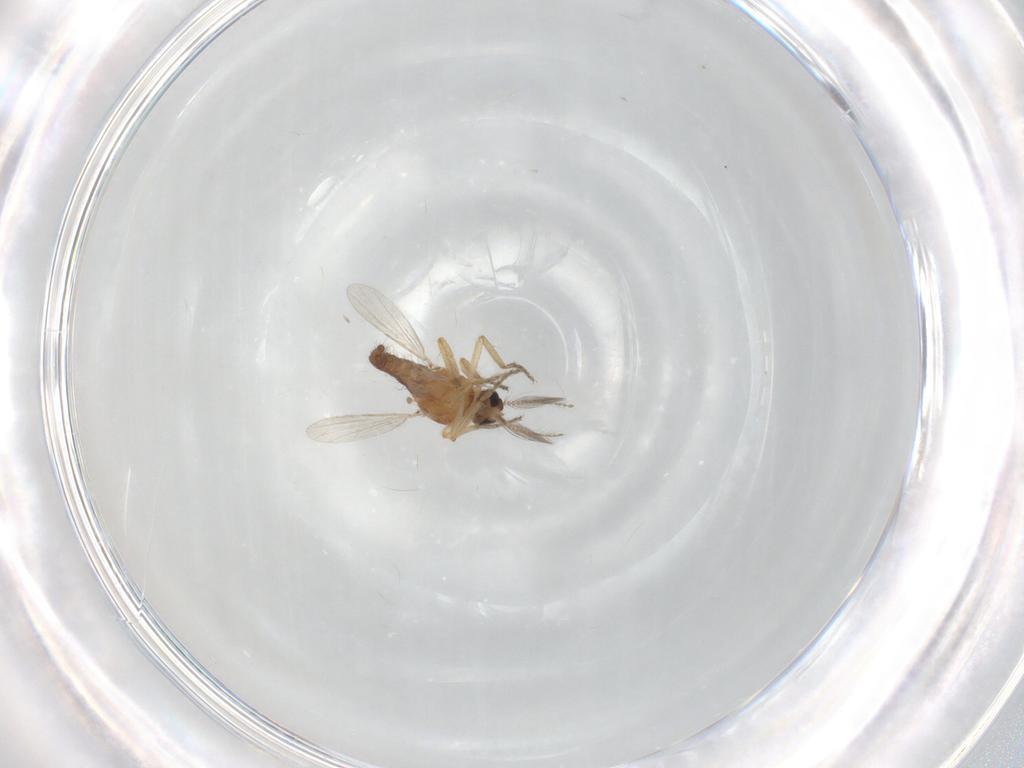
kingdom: Animalia
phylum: Arthropoda
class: Insecta
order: Diptera
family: Ceratopogonidae
